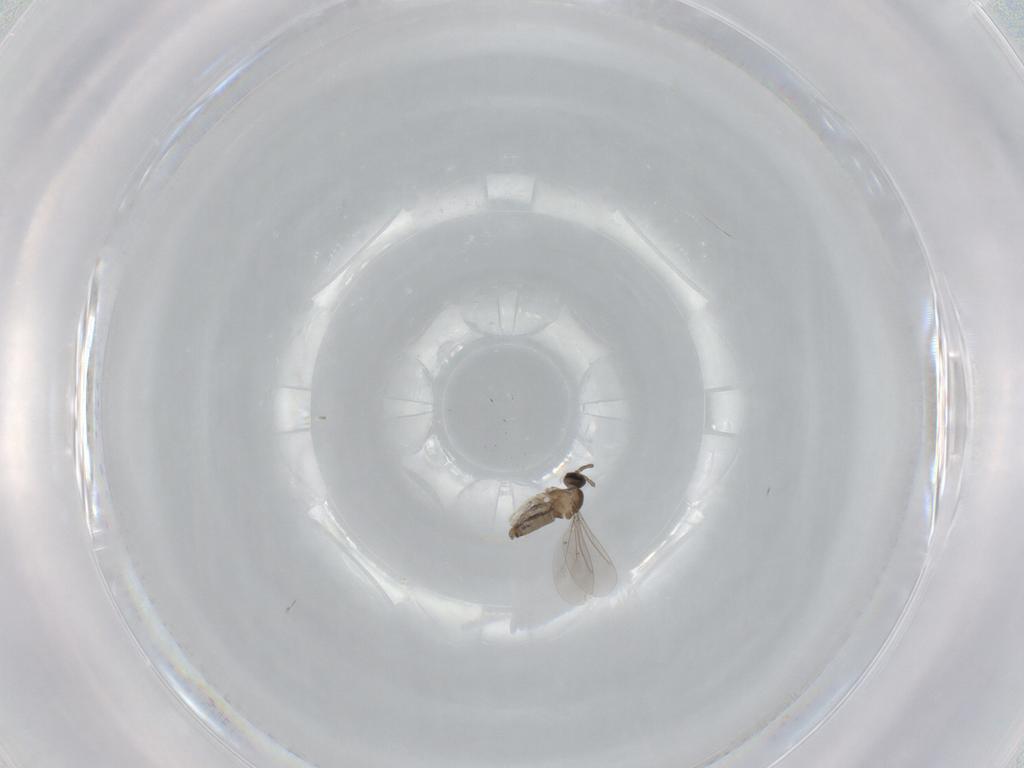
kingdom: Animalia
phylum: Arthropoda
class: Insecta
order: Diptera
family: Cecidomyiidae
